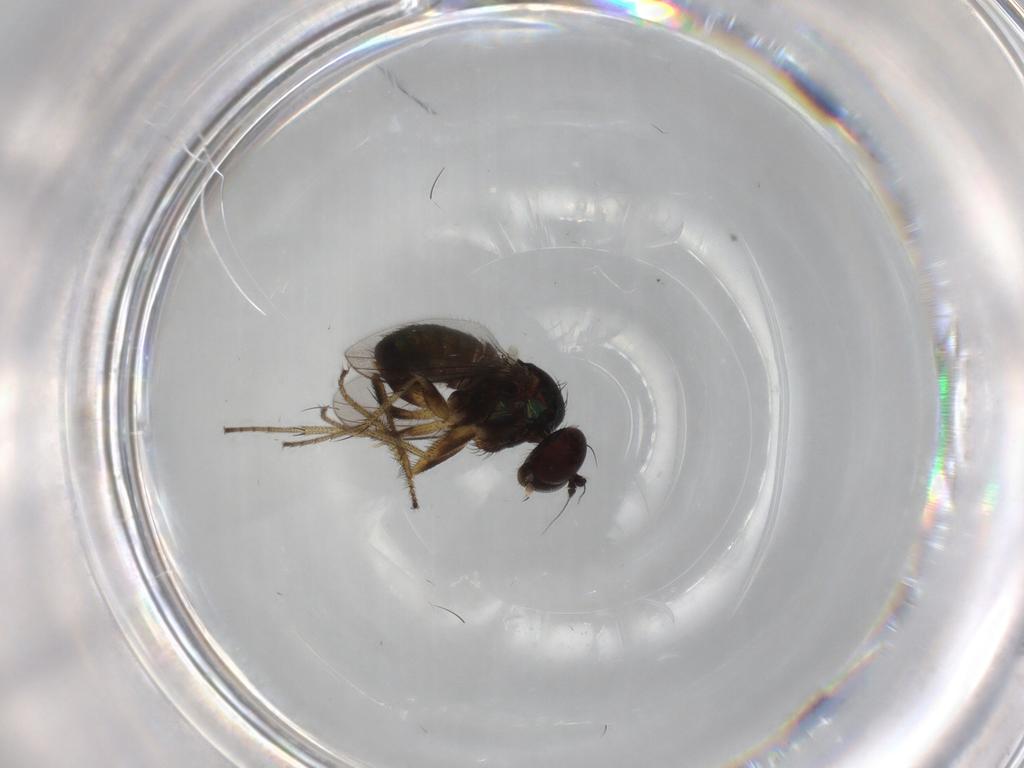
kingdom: Animalia
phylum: Arthropoda
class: Insecta
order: Diptera
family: Dolichopodidae
